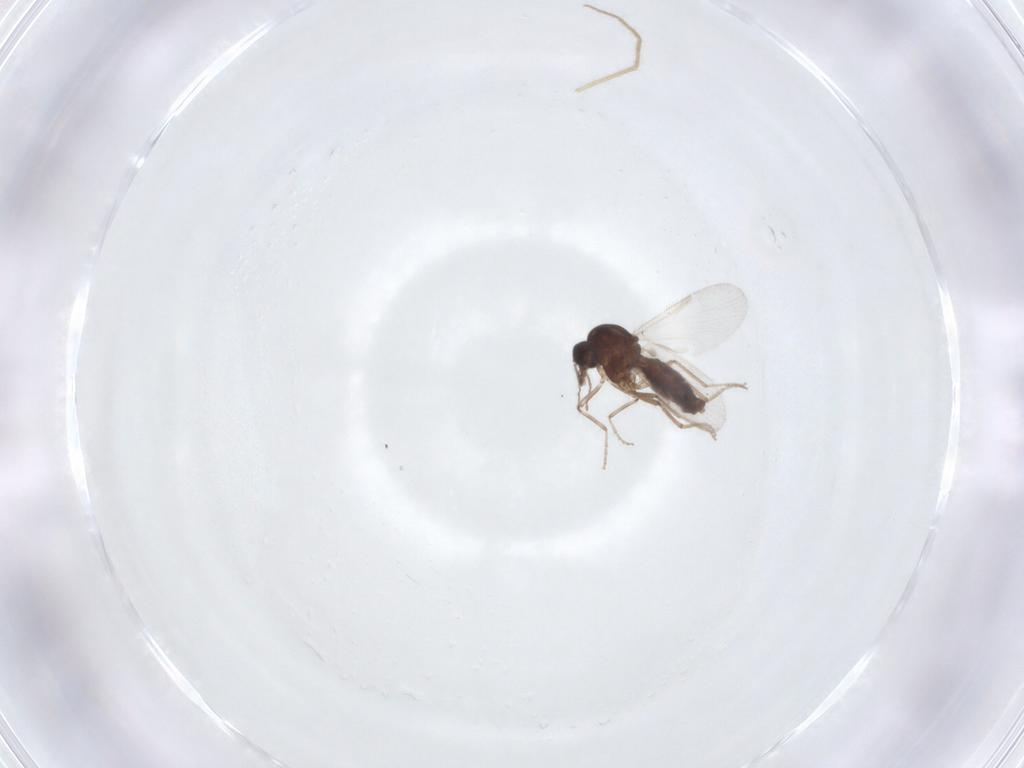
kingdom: Animalia
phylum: Arthropoda
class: Insecta
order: Diptera
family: Ceratopogonidae
